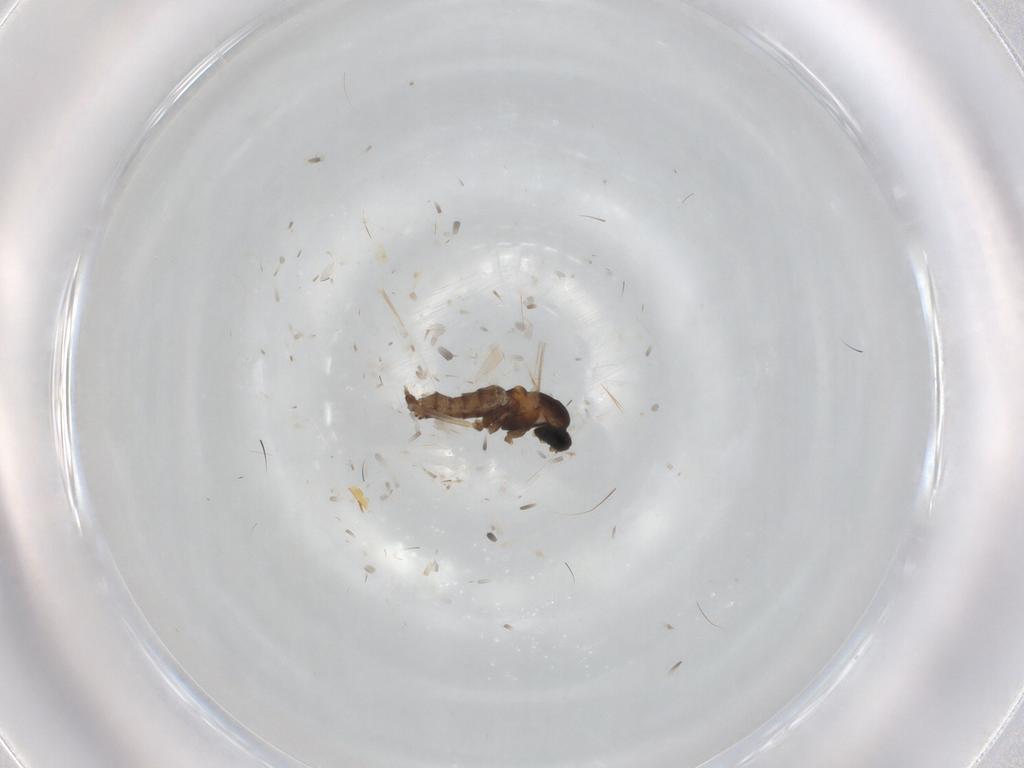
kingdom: Animalia
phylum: Arthropoda
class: Insecta
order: Diptera
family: Cecidomyiidae
